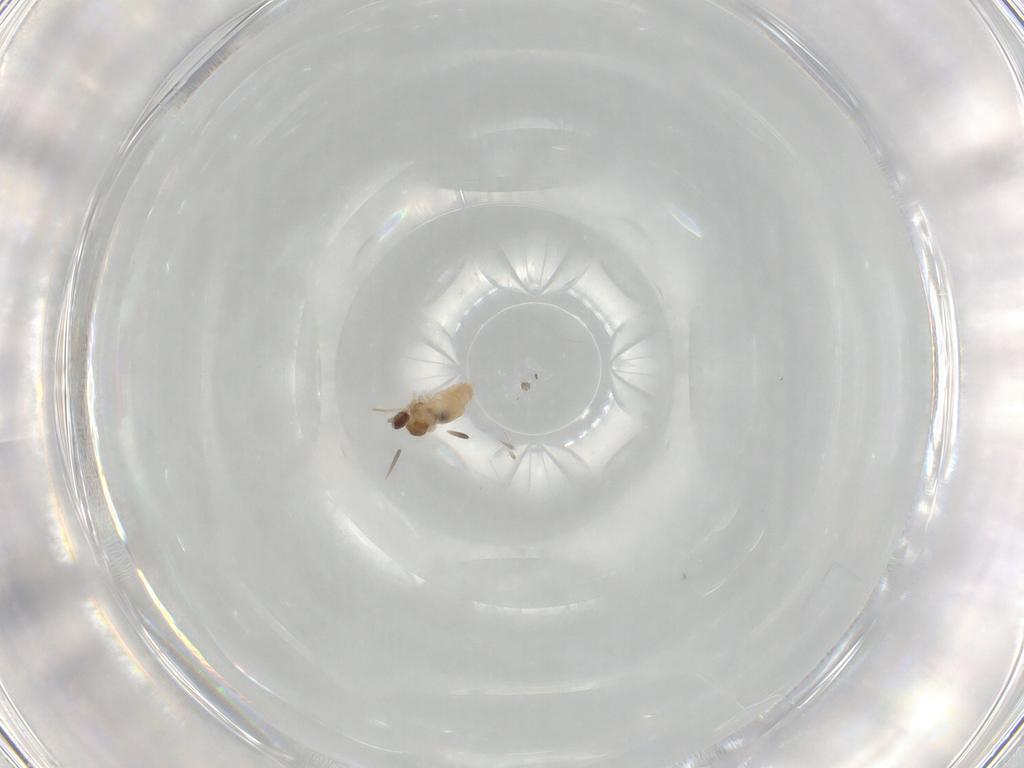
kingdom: Animalia
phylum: Arthropoda
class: Insecta
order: Diptera
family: Cecidomyiidae
